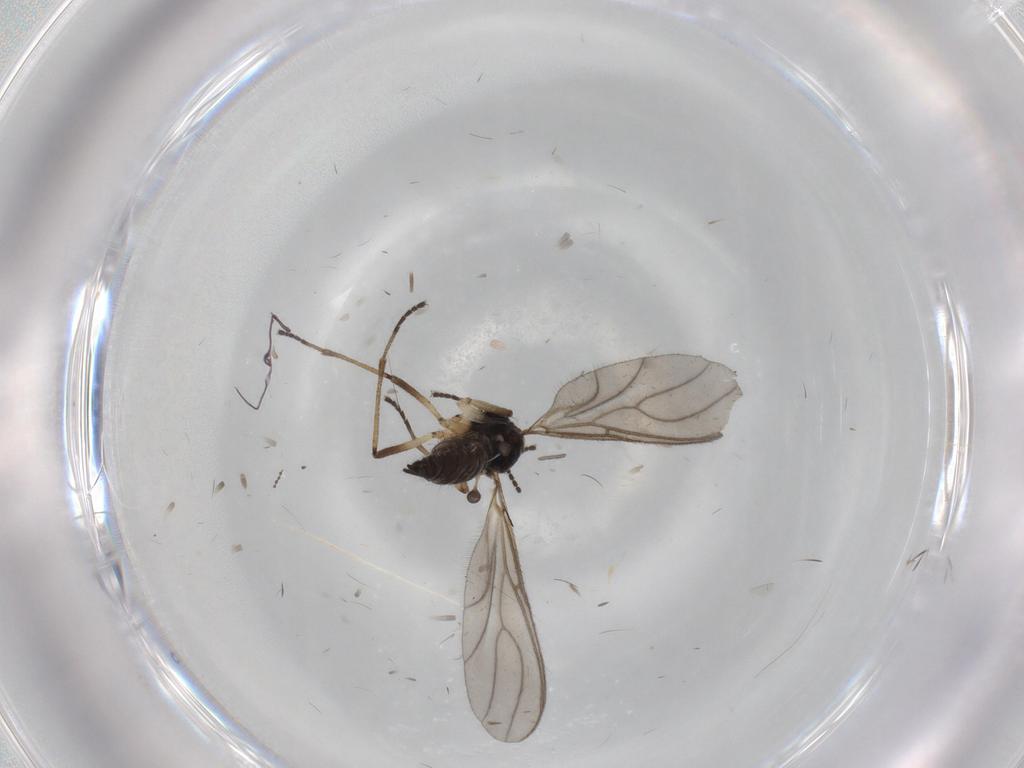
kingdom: Animalia
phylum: Arthropoda
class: Insecta
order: Diptera
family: Sciaridae
